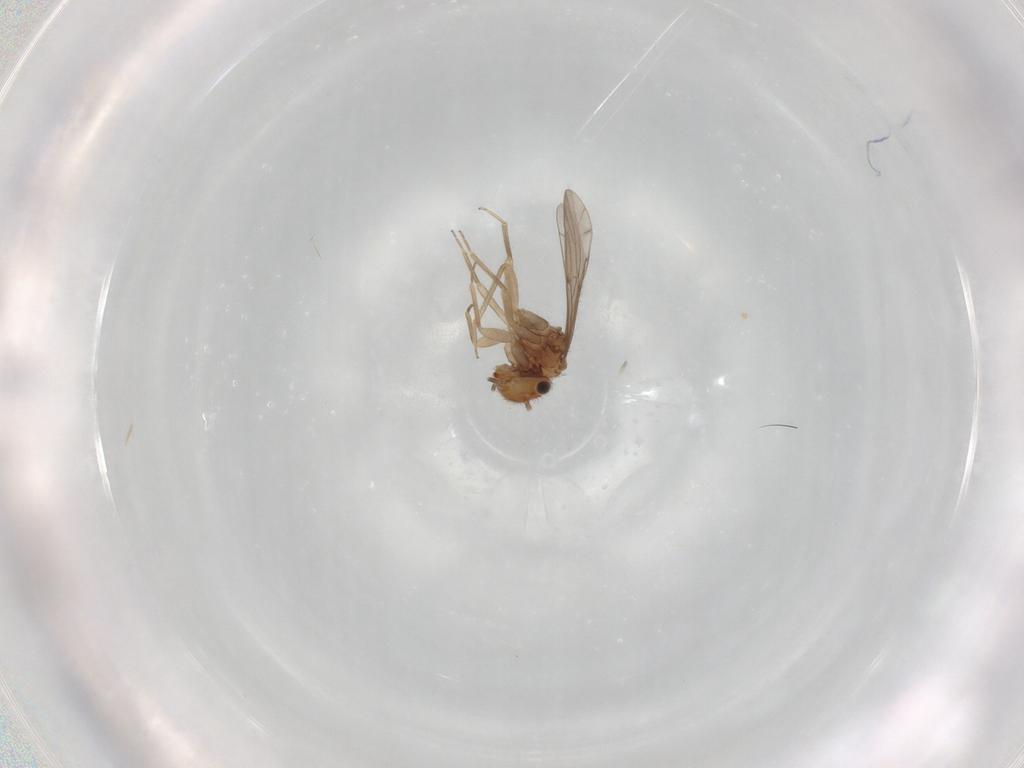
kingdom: Animalia
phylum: Arthropoda
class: Insecta
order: Psocodea
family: Ectopsocidae
